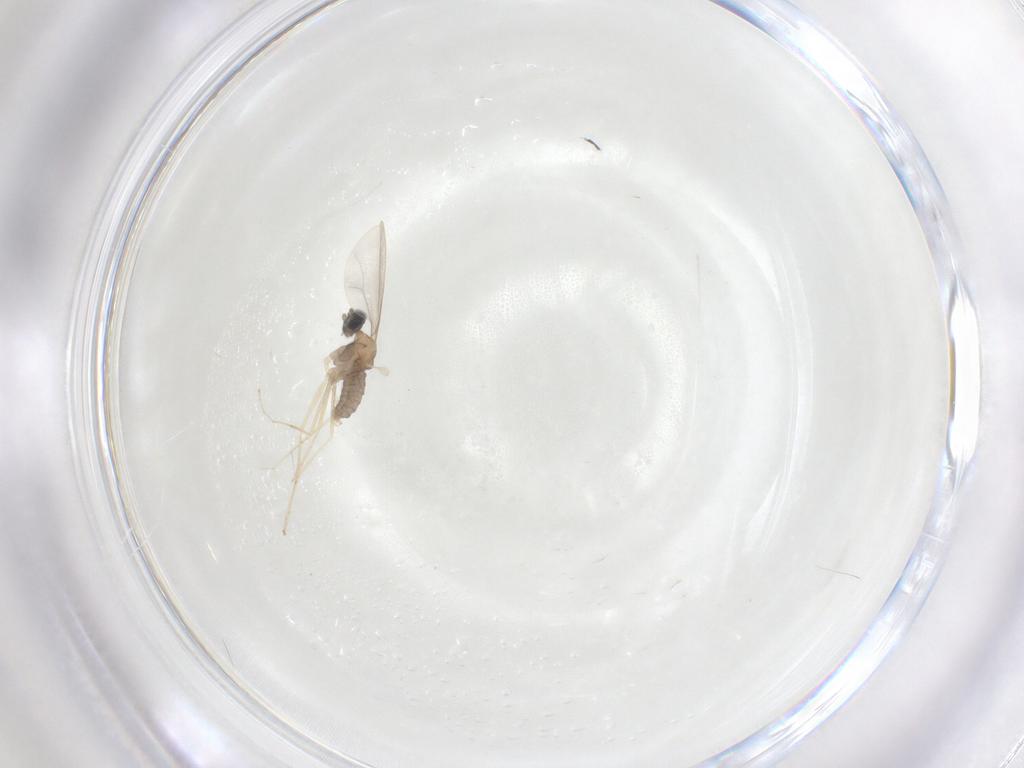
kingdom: Animalia
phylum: Arthropoda
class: Insecta
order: Diptera
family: Cecidomyiidae
